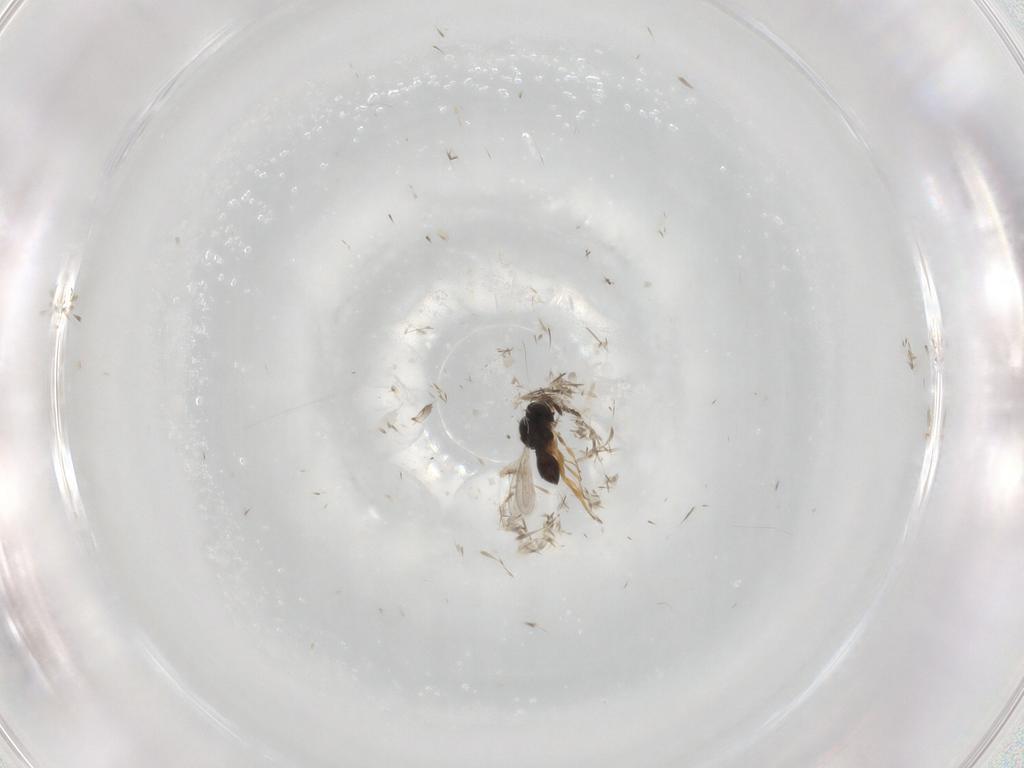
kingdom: Animalia
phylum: Arthropoda
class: Insecta
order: Hymenoptera
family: Scelionidae
